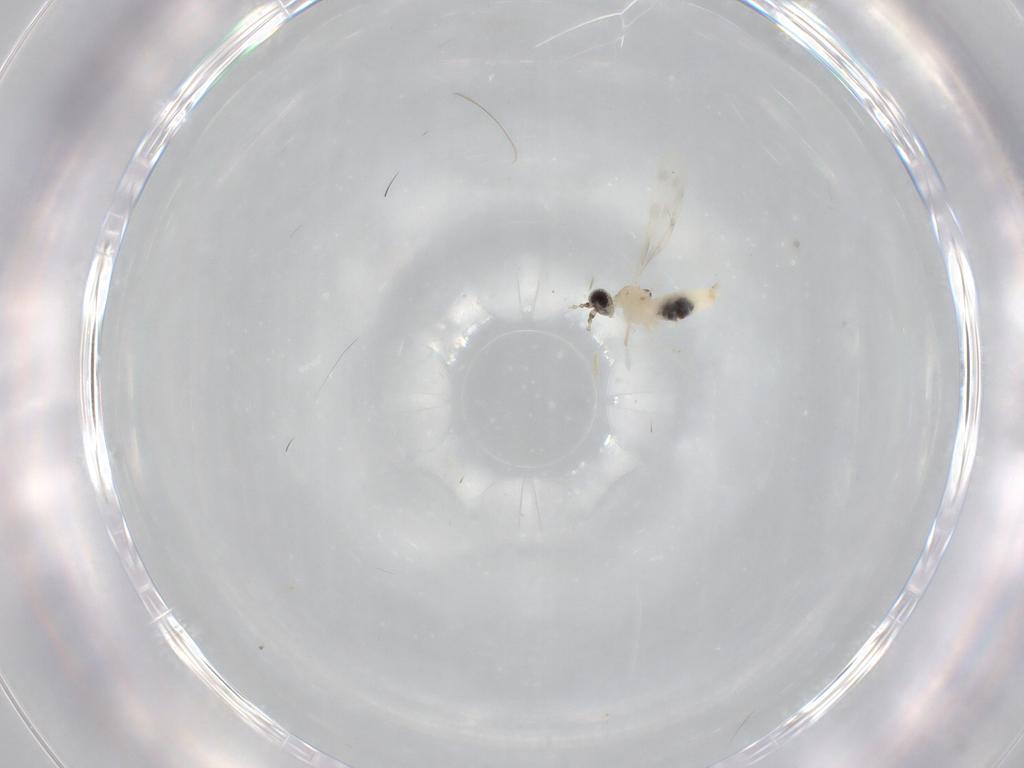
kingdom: Animalia
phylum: Arthropoda
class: Insecta
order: Diptera
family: Cecidomyiidae
